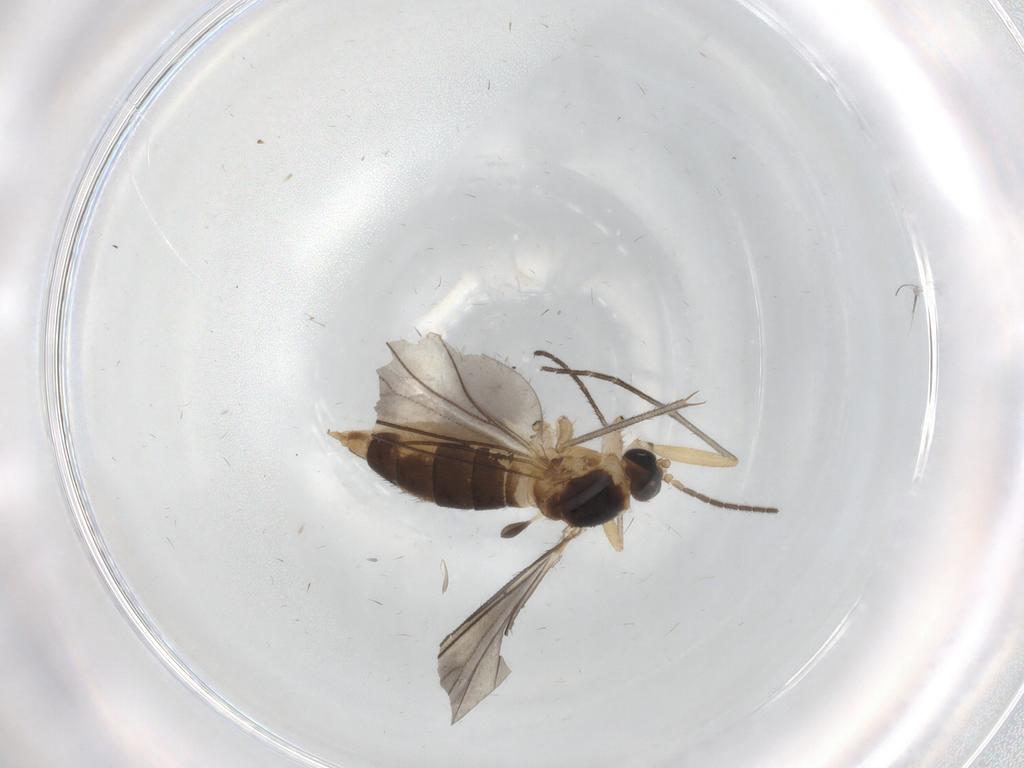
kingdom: Animalia
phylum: Arthropoda
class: Insecta
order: Diptera
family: Sciaridae
